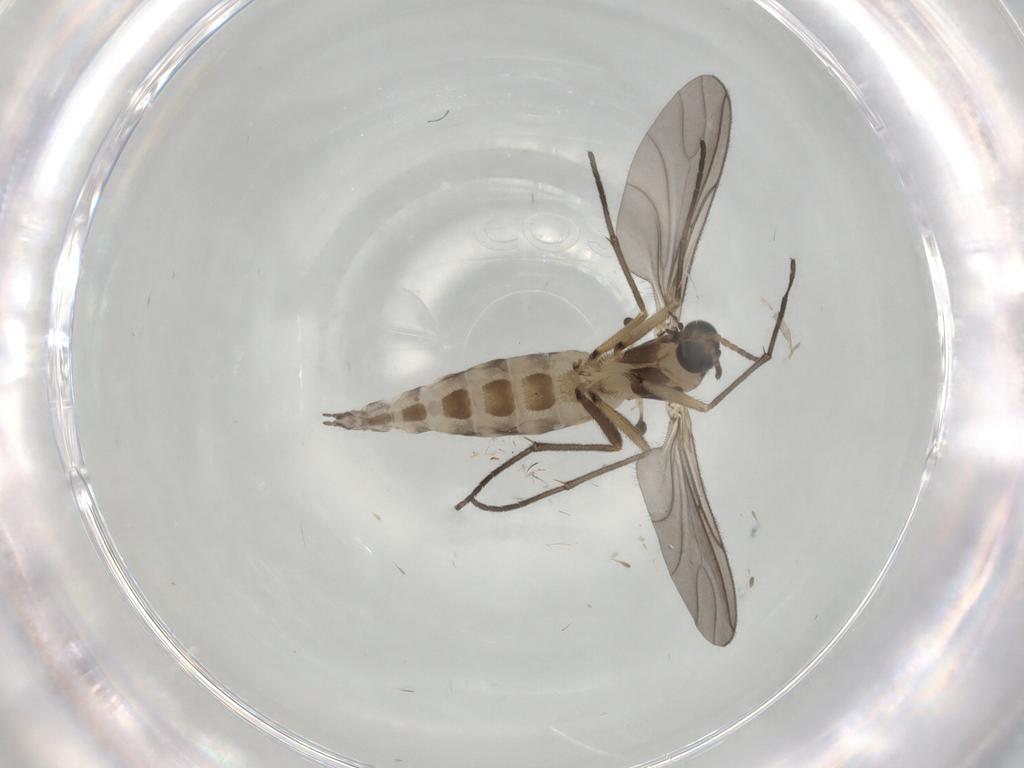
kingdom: Animalia
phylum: Arthropoda
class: Insecta
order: Diptera
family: Sciaridae
